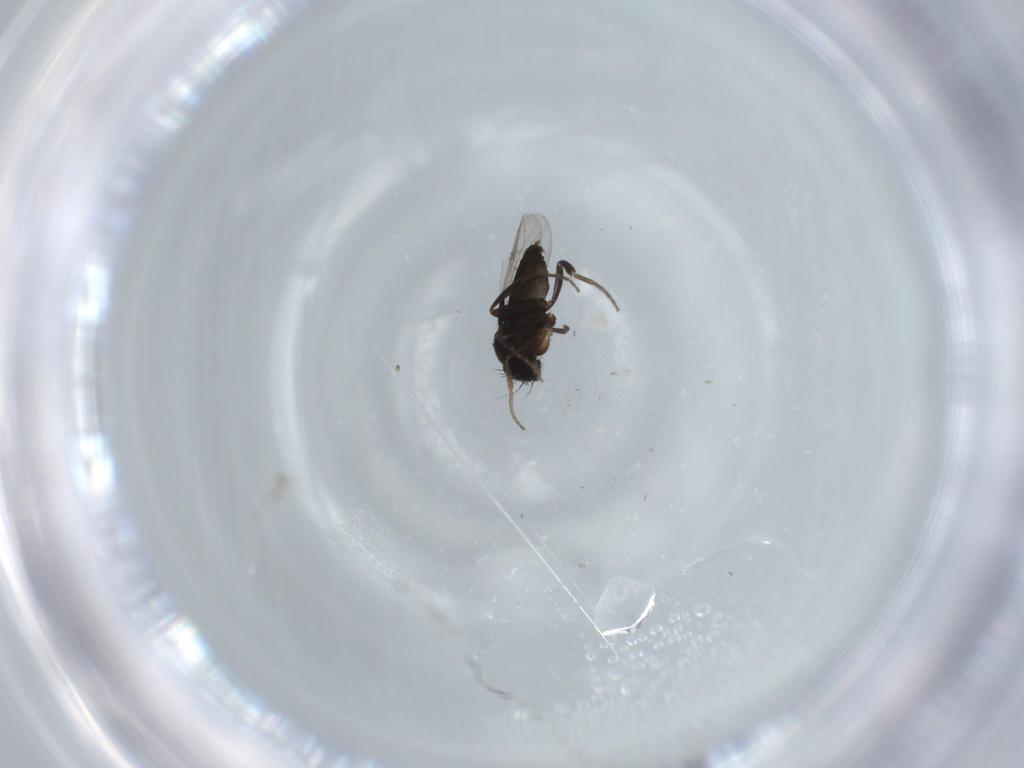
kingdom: Animalia
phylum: Arthropoda
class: Insecta
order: Diptera
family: Phoridae
